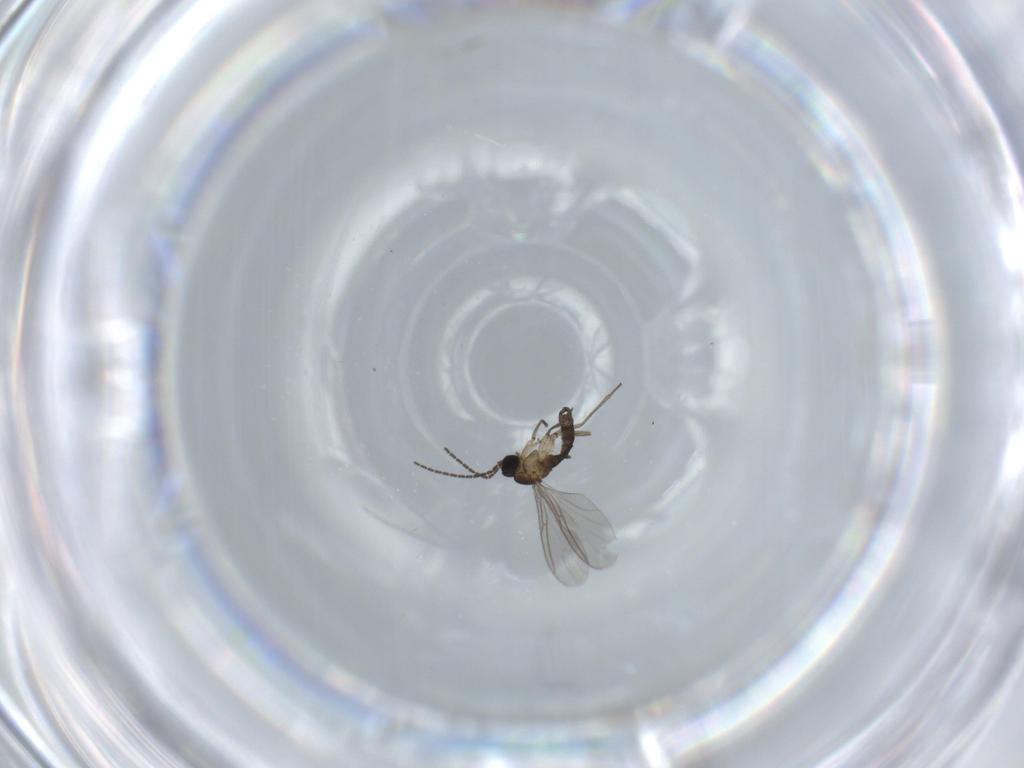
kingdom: Animalia
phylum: Arthropoda
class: Insecta
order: Diptera
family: Sciaridae
